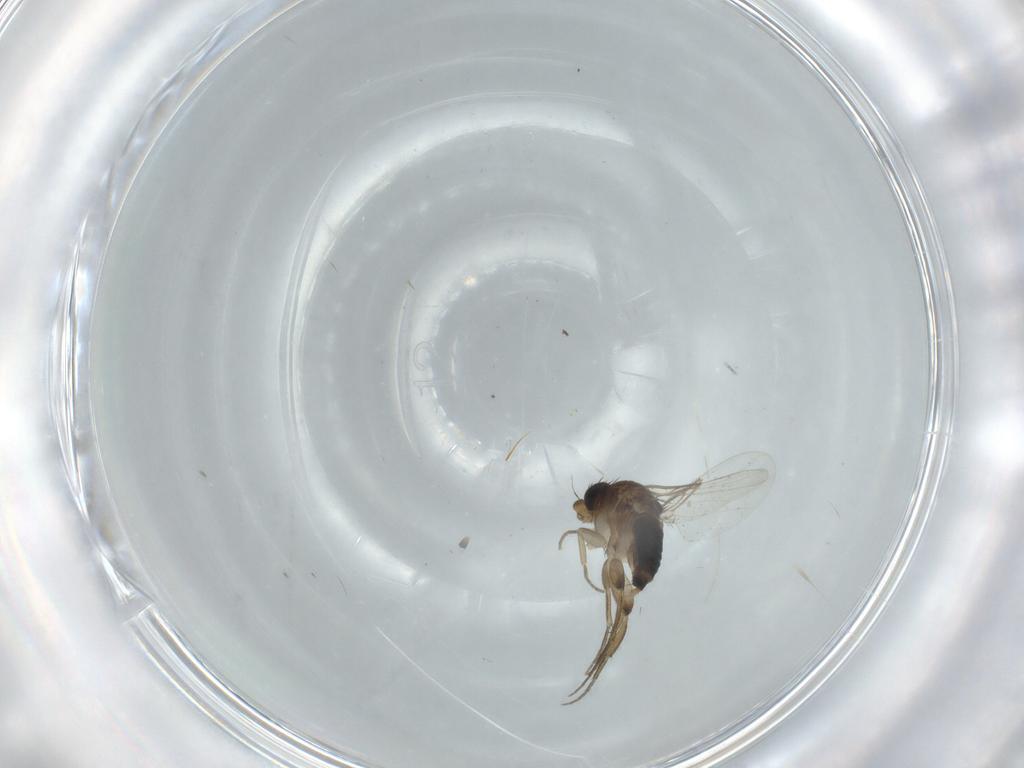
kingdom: Animalia
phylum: Arthropoda
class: Insecta
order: Diptera
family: Phoridae
